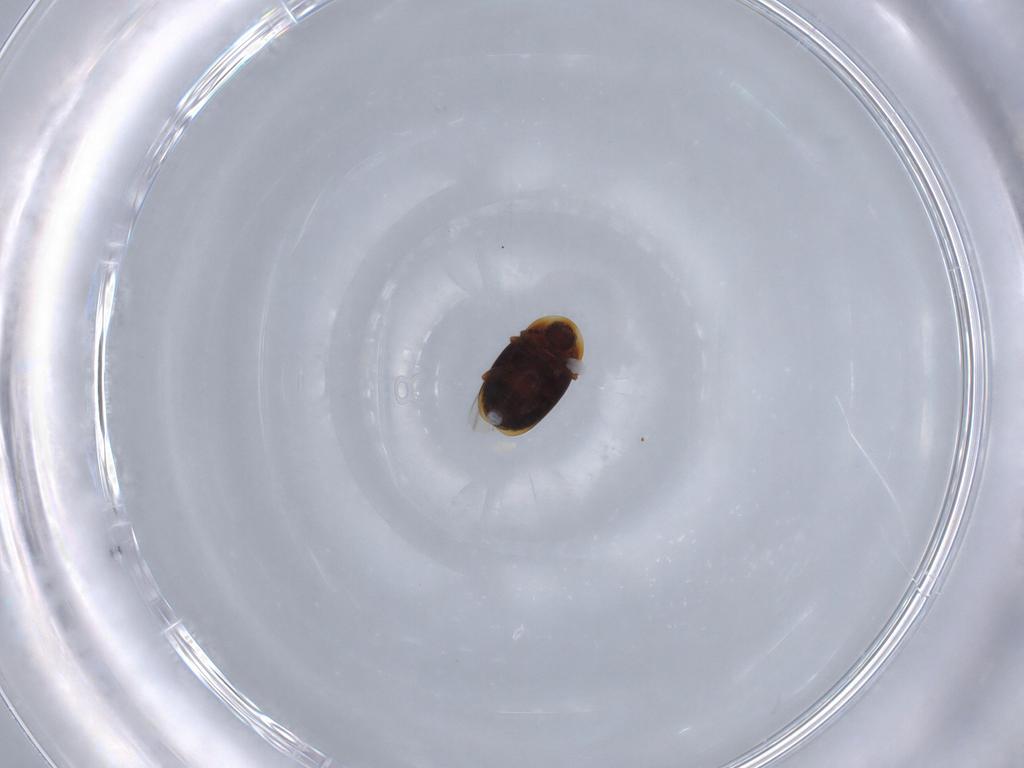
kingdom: Animalia
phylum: Arthropoda
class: Insecta
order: Coleoptera
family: Corylophidae
